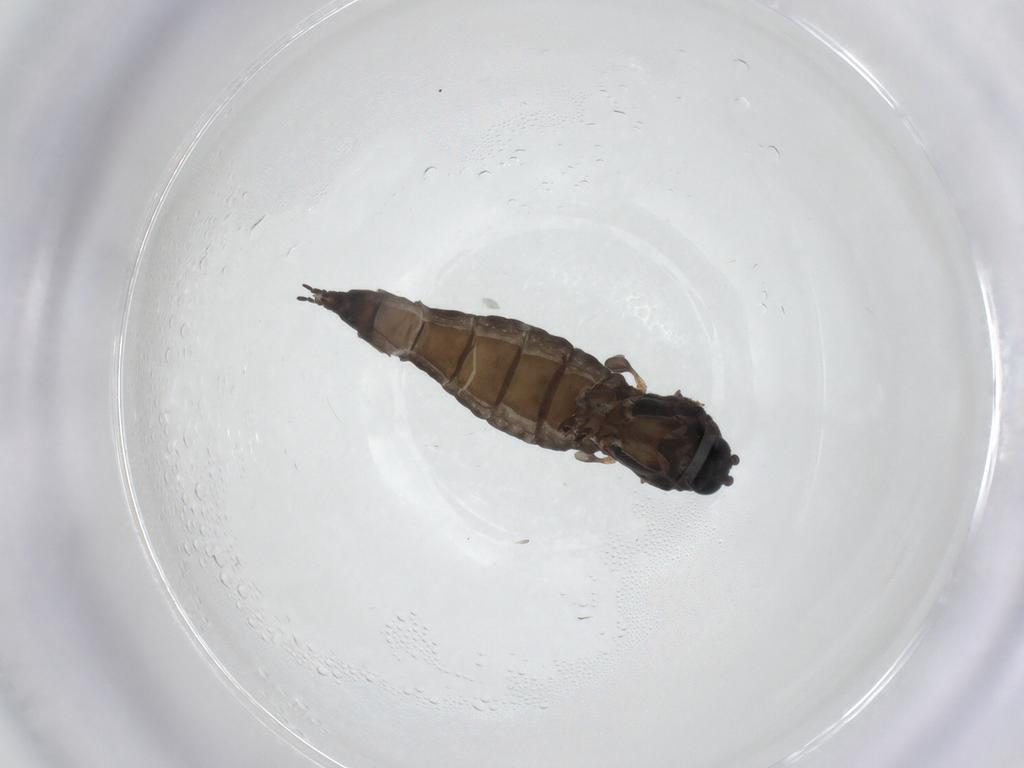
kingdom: Animalia
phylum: Arthropoda
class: Insecta
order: Diptera
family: Sciaridae
